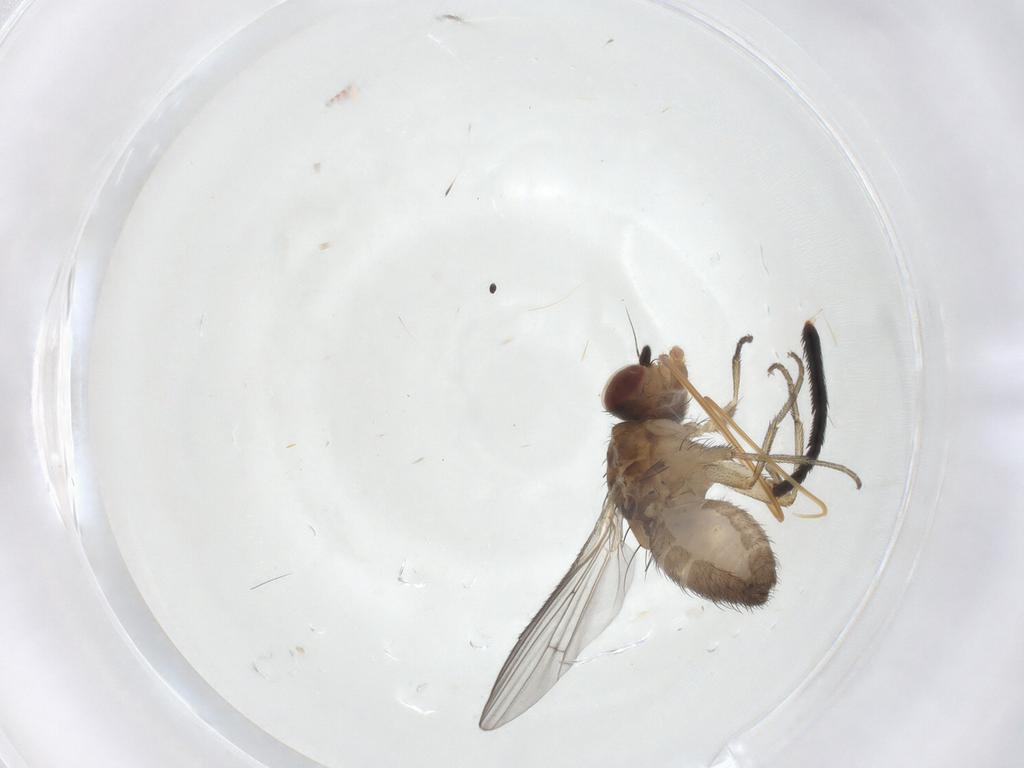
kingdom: Animalia
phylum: Arthropoda
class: Insecta
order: Diptera
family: Heleomyzidae
